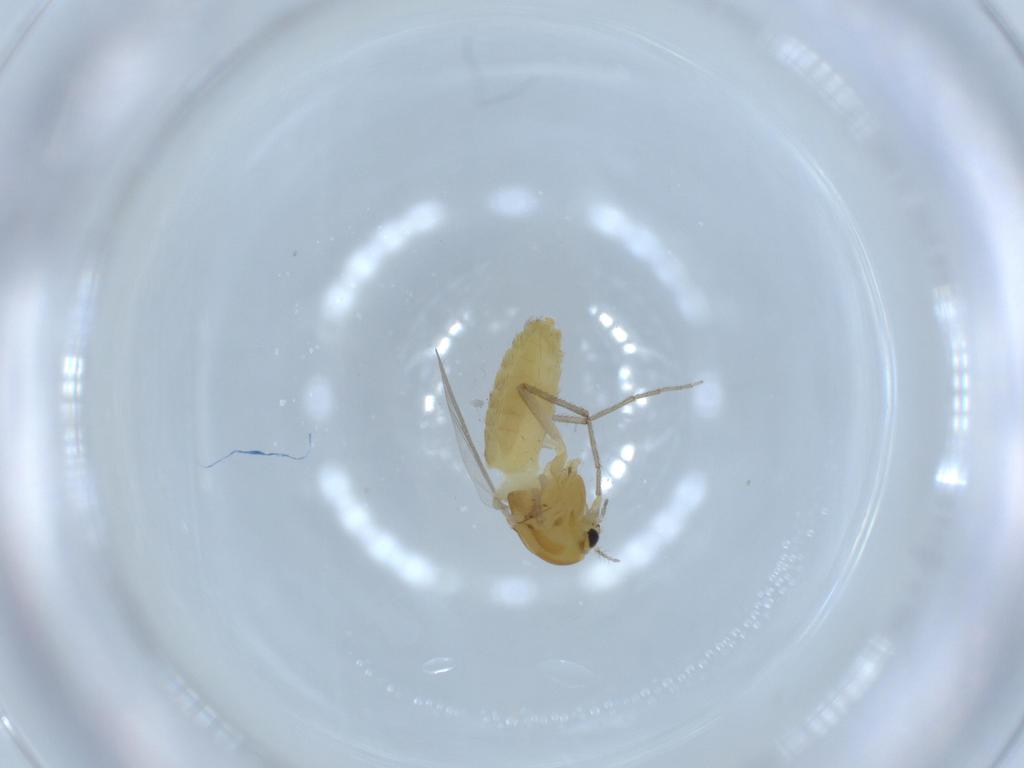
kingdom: Animalia
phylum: Arthropoda
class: Insecta
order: Diptera
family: Chironomidae
